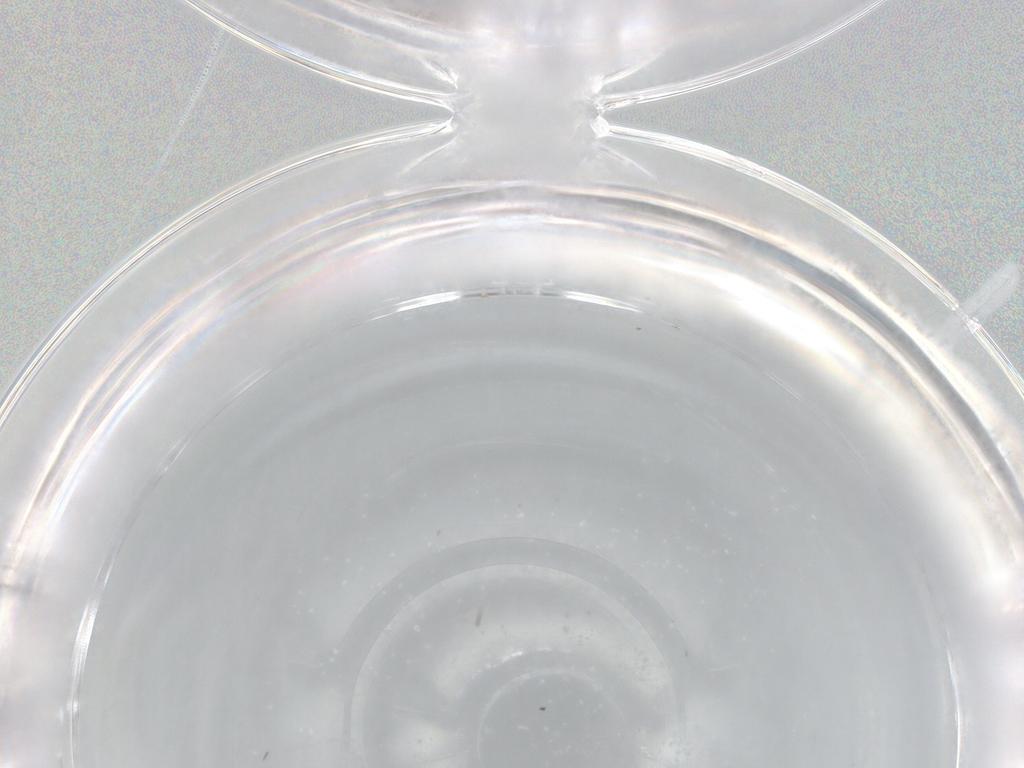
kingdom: Animalia
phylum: Arthropoda
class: Insecta
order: Diptera
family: Cecidomyiidae
